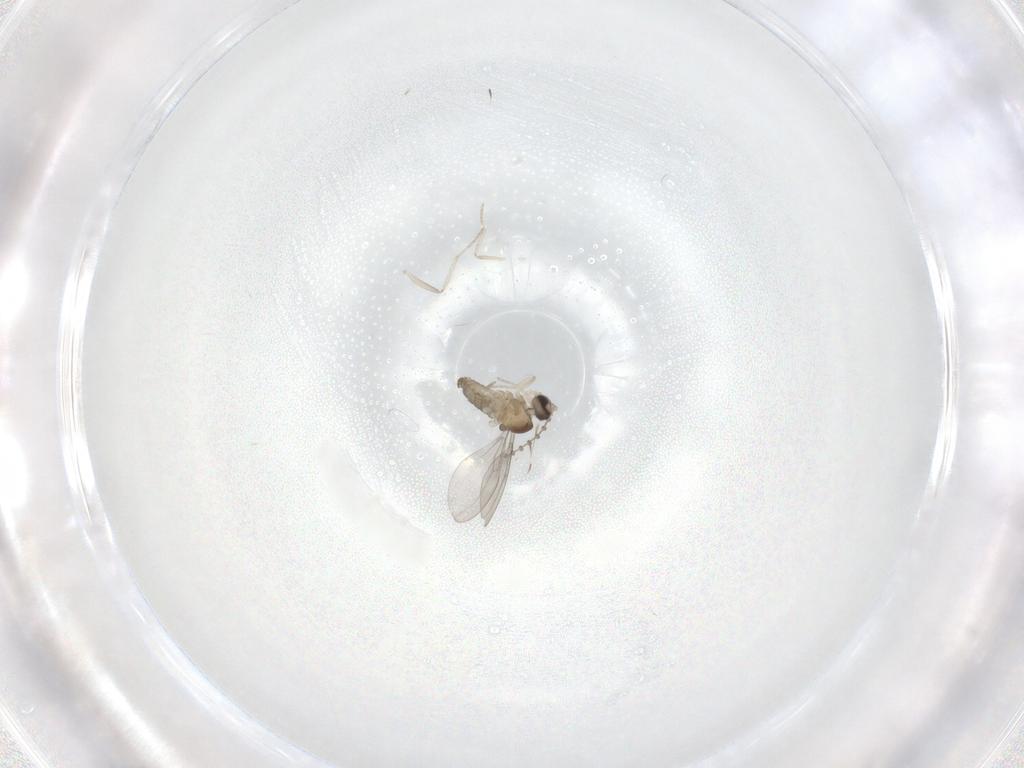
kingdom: Animalia
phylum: Arthropoda
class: Insecta
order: Diptera
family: Cecidomyiidae
